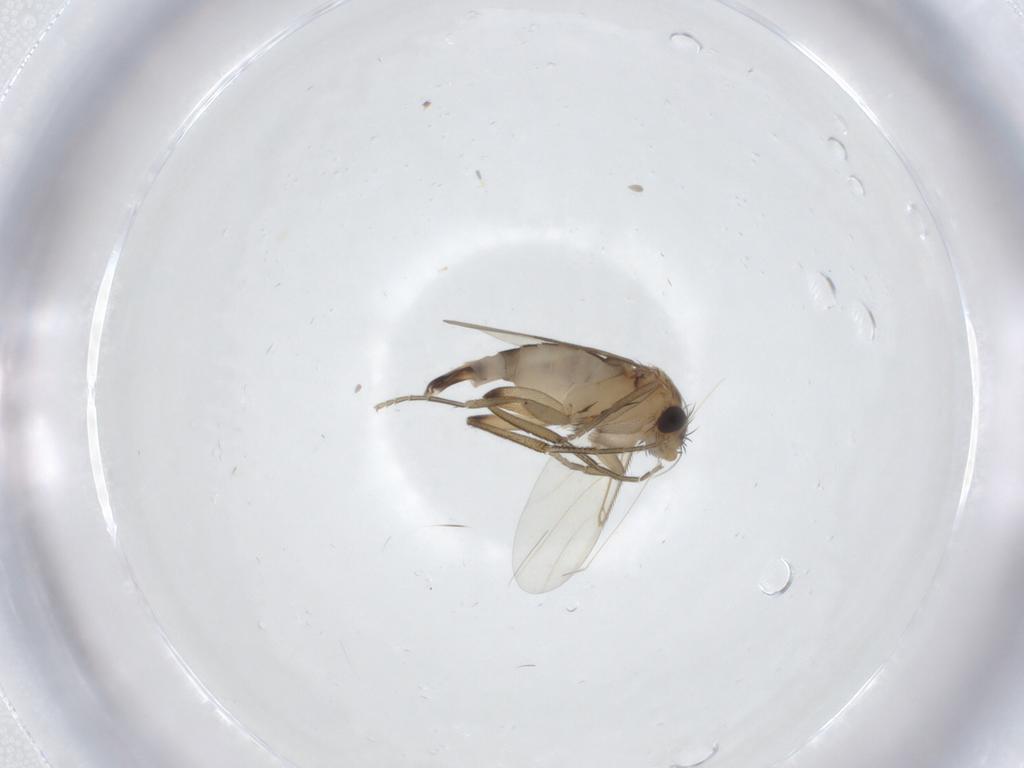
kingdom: Animalia
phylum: Arthropoda
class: Insecta
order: Diptera
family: Phoridae
